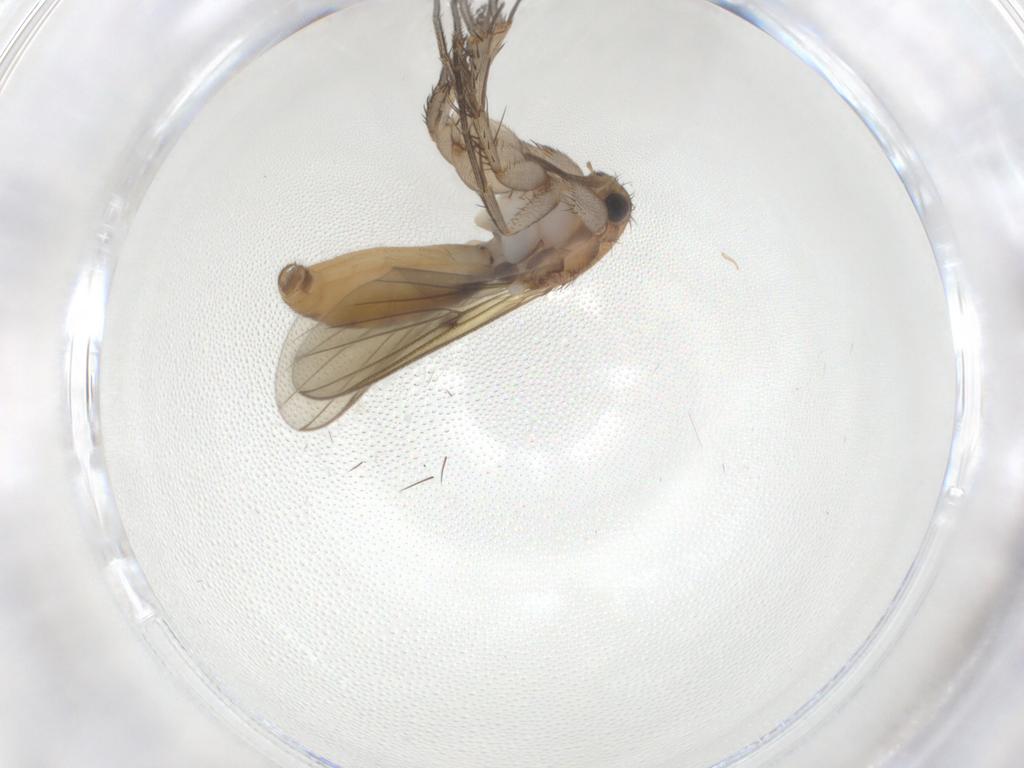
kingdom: Animalia
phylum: Arthropoda
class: Insecta
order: Diptera
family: Mycetophilidae
